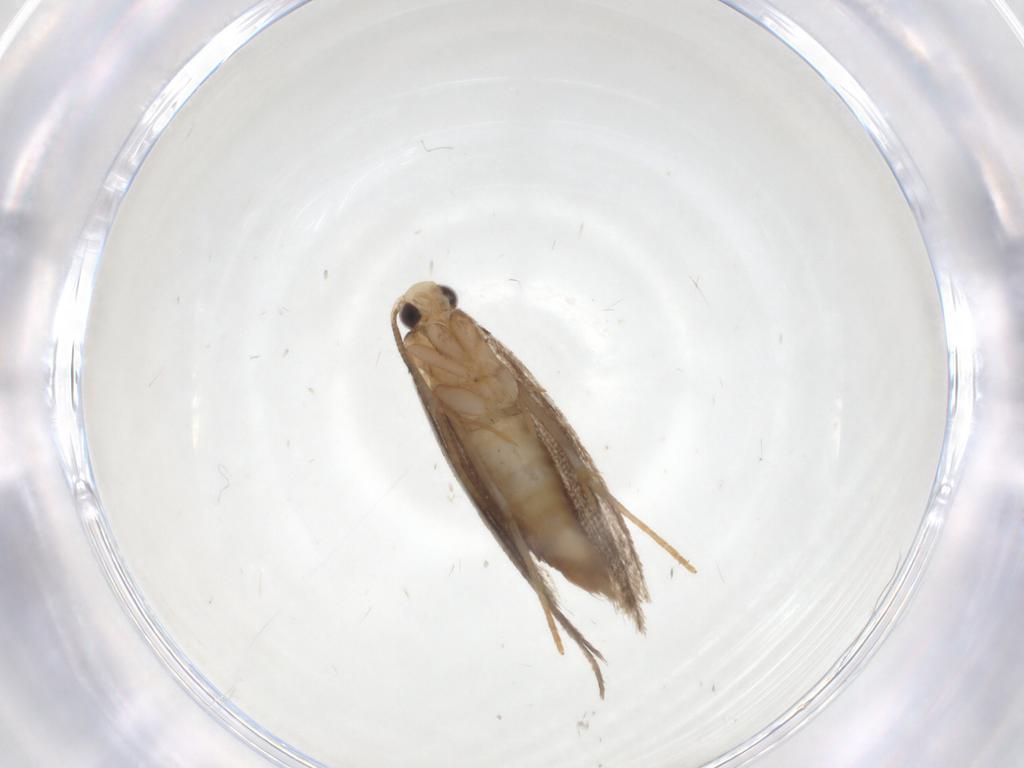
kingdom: Animalia
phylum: Arthropoda
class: Insecta
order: Lepidoptera
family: Tineidae
